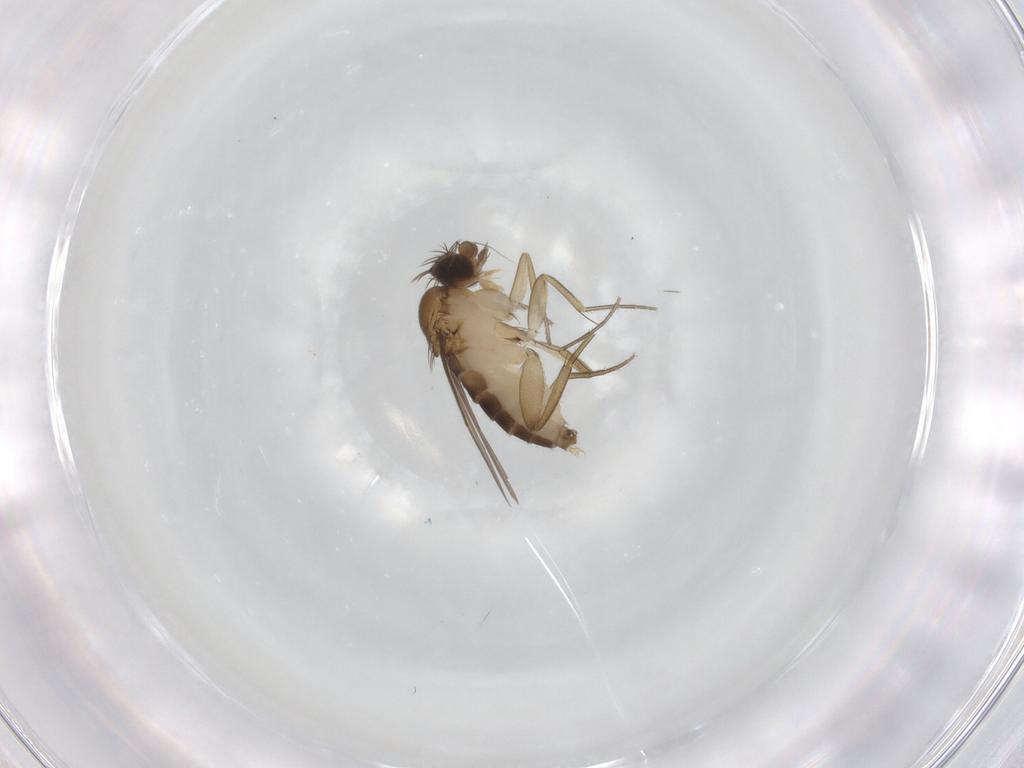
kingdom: Animalia
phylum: Arthropoda
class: Insecta
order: Diptera
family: Phoridae
